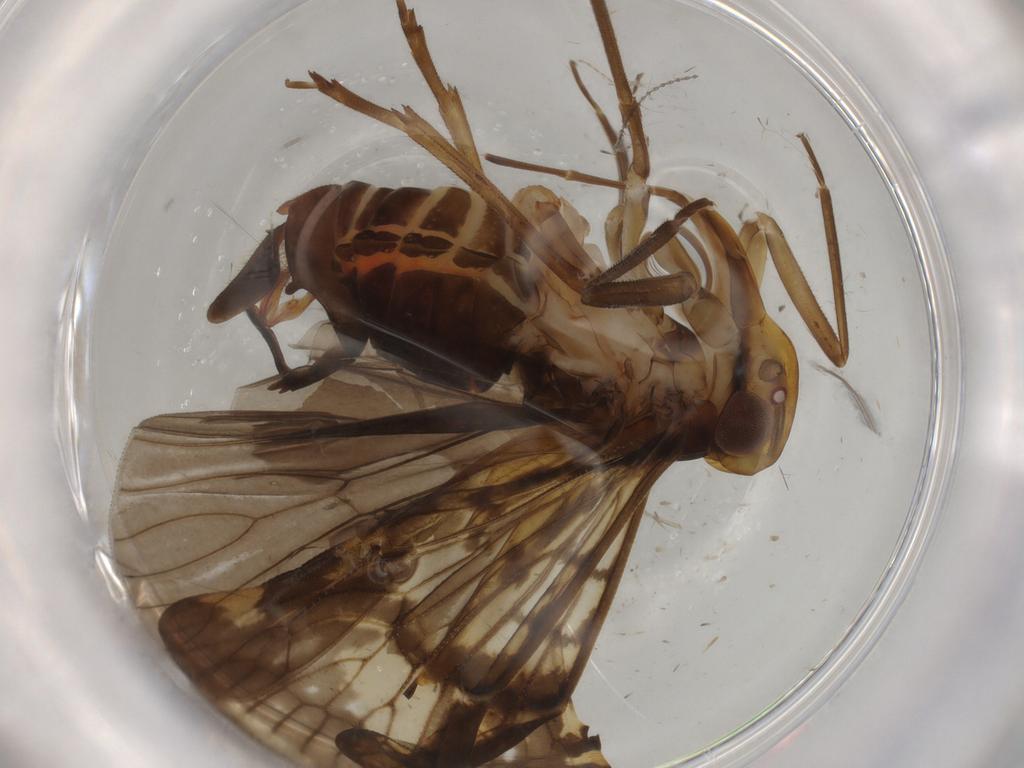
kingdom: Animalia
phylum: Arthropoda
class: Insecta
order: Hemiptera
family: Cixiidae
